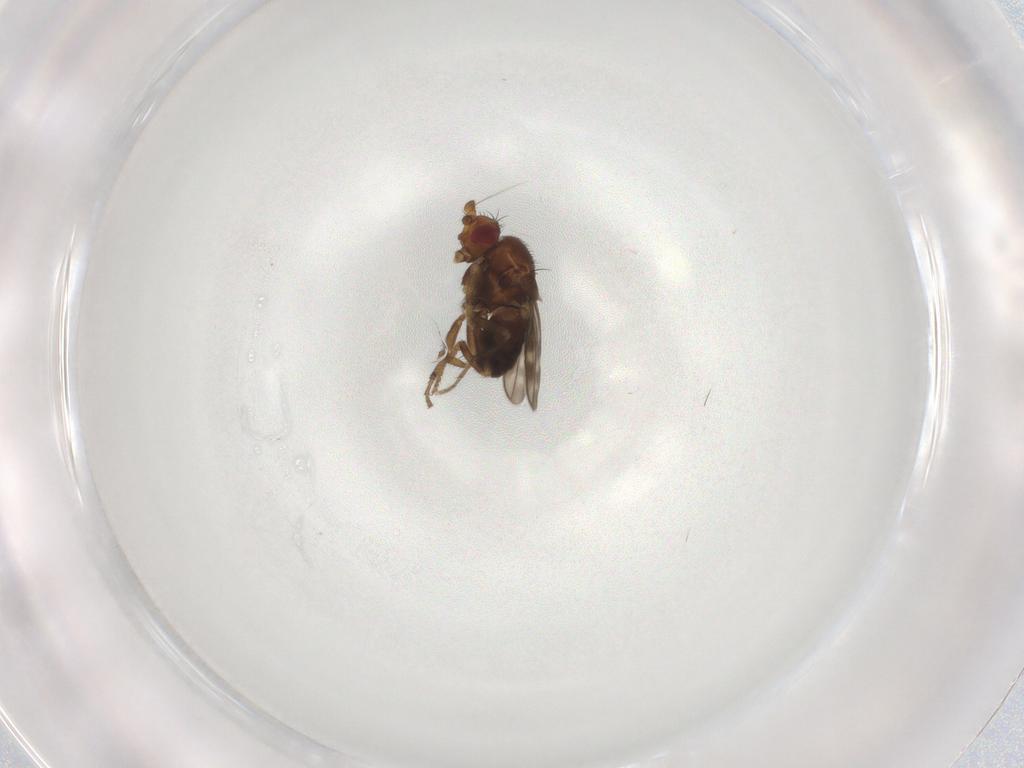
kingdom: Animalia
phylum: Arthropoda
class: Insecta
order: Diptera
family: Sphaeroceridae
